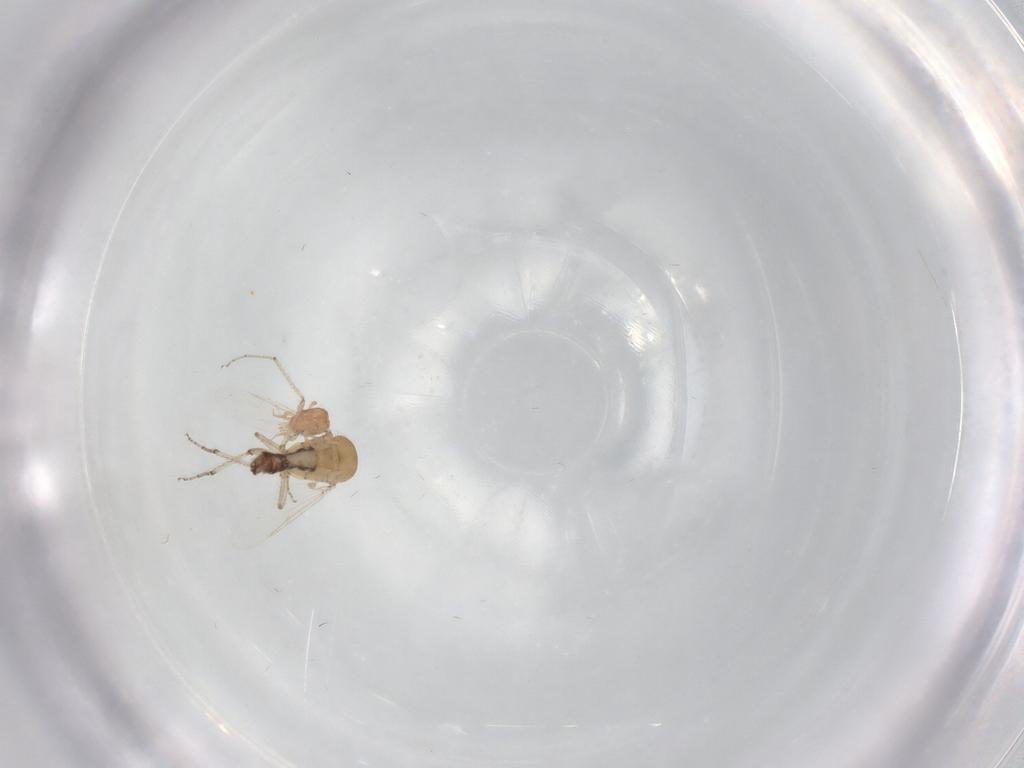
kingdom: Animalia
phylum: Arthropoda
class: Insecta
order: Diptera
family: Ceratopogonidae
